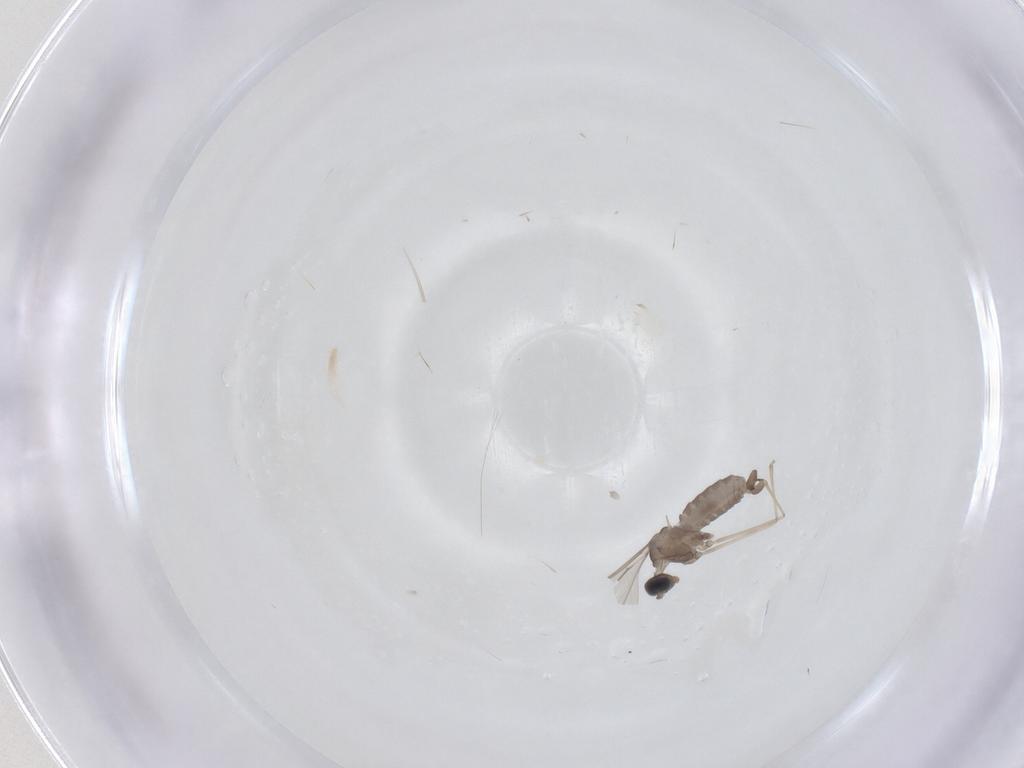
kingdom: Animalia
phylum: Arthropoda
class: Insecta
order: Diptera
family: Cecidomyiidae
